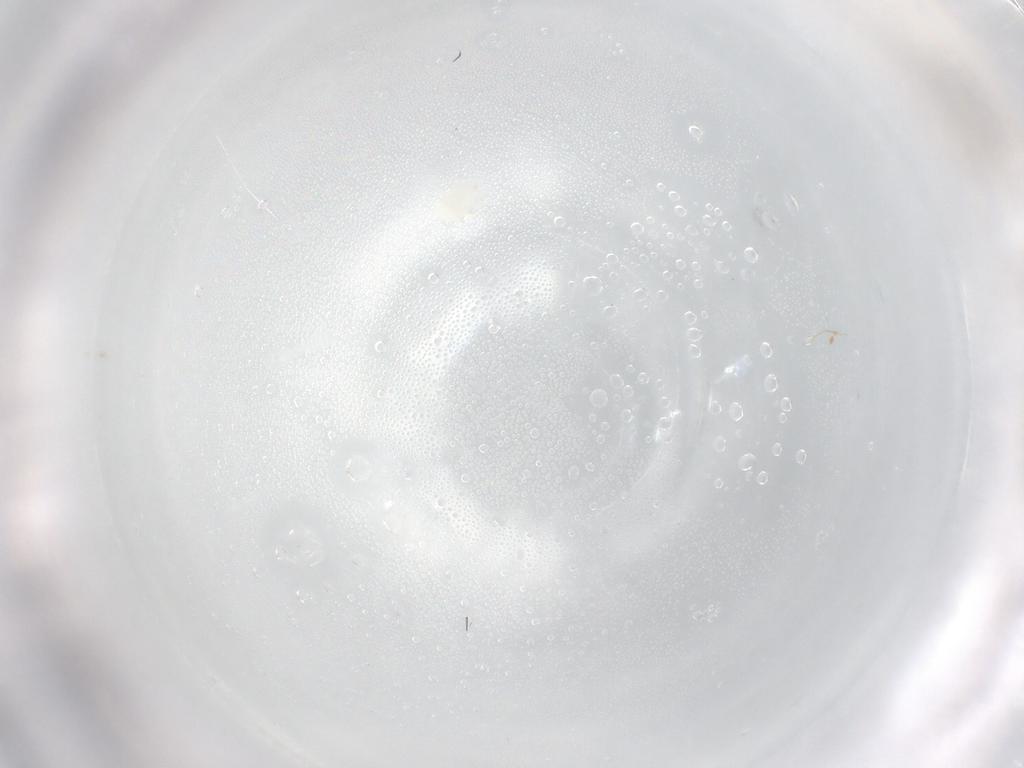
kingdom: Animalia
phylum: Arthropoda
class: Arachnida
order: Mesostigmata
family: Melicharidae
